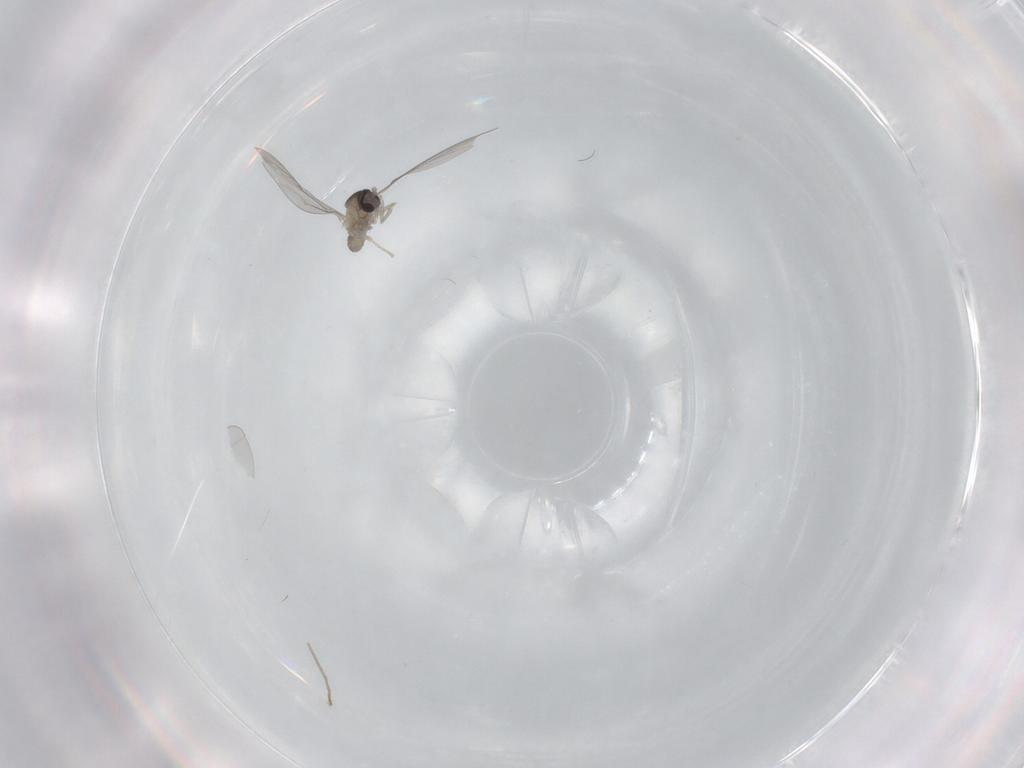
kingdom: Animalia
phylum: Arthropoda
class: Insecta
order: Diptera
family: Cecidomyiidae
